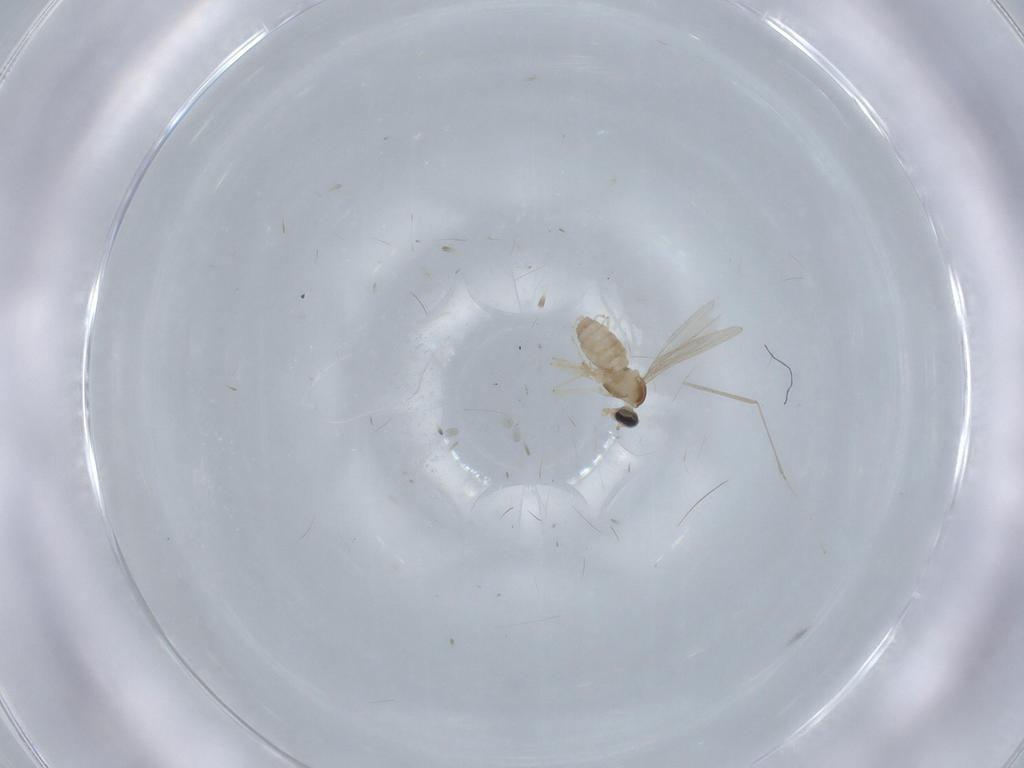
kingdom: Animalia
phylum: Arthropoda
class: Insecta
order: Diptera
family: Cecidomyiidae
